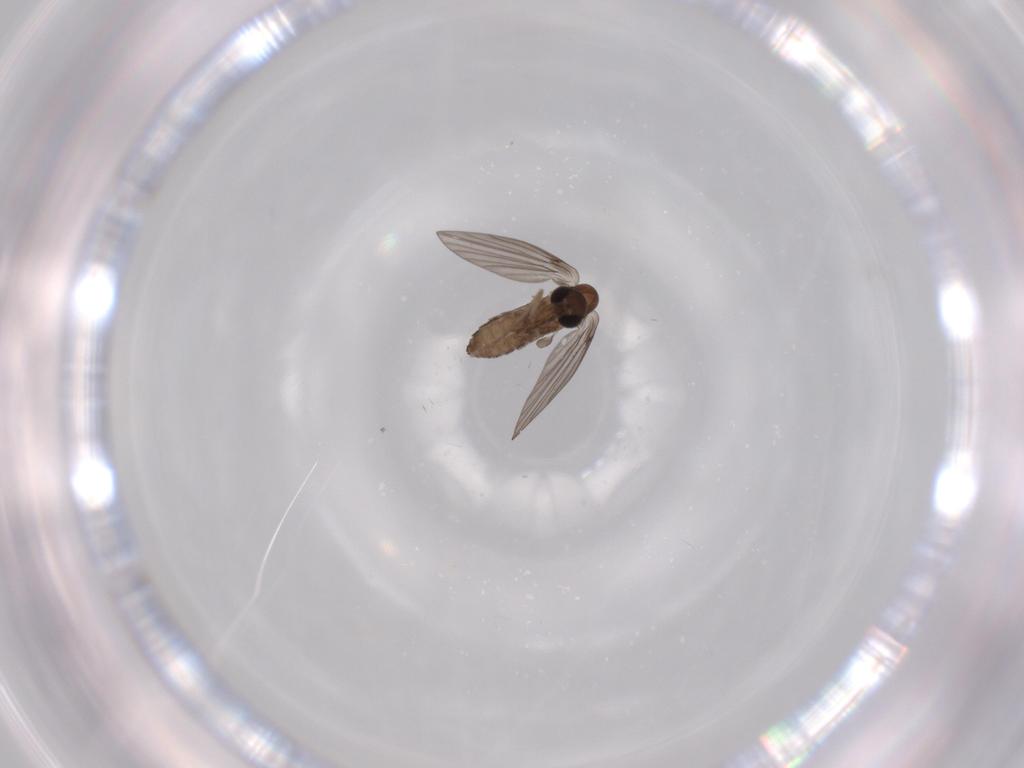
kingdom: Animalia
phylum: Arthropoda
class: Insecta
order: Diptera
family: Psychodidae
